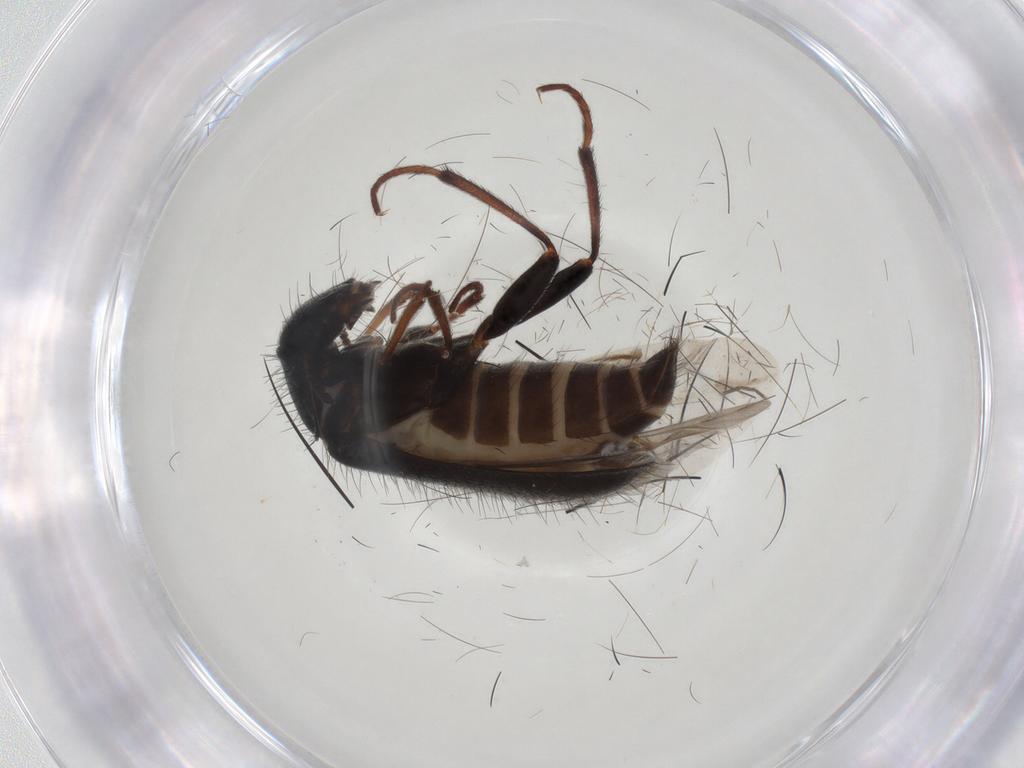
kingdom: Animalia
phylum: Arthropoda
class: Insecta
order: Coleoptera
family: Melyridae
